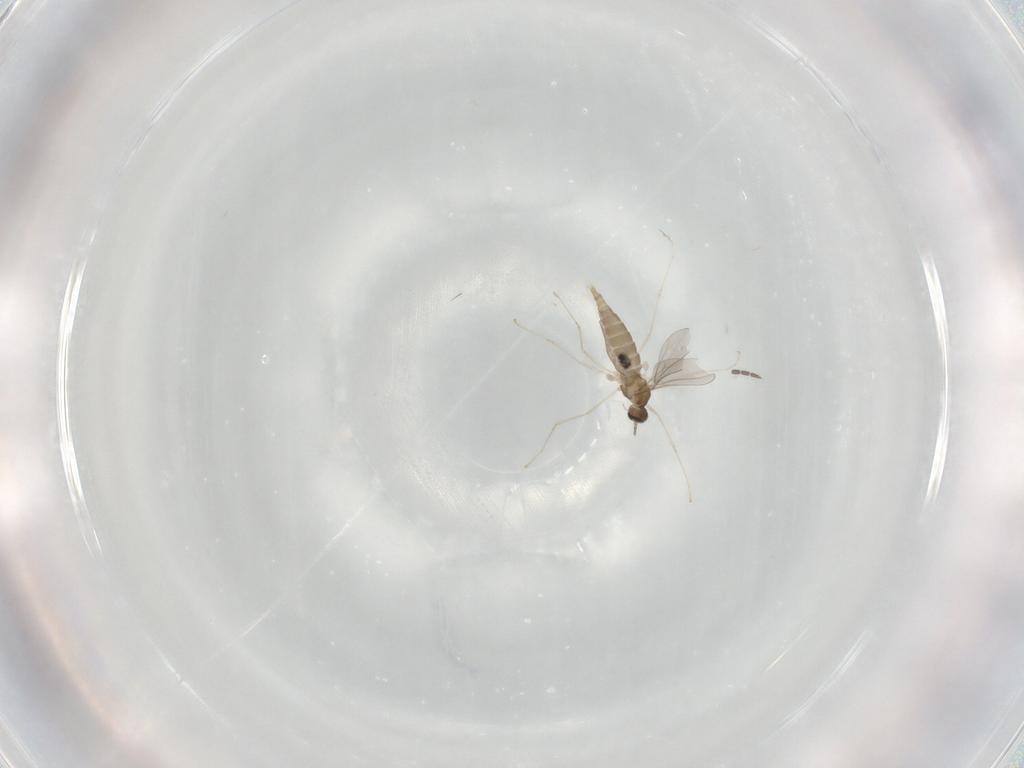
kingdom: Animalia
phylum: Arthropoda
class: Insecta
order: Diptera
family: Sciaridae
